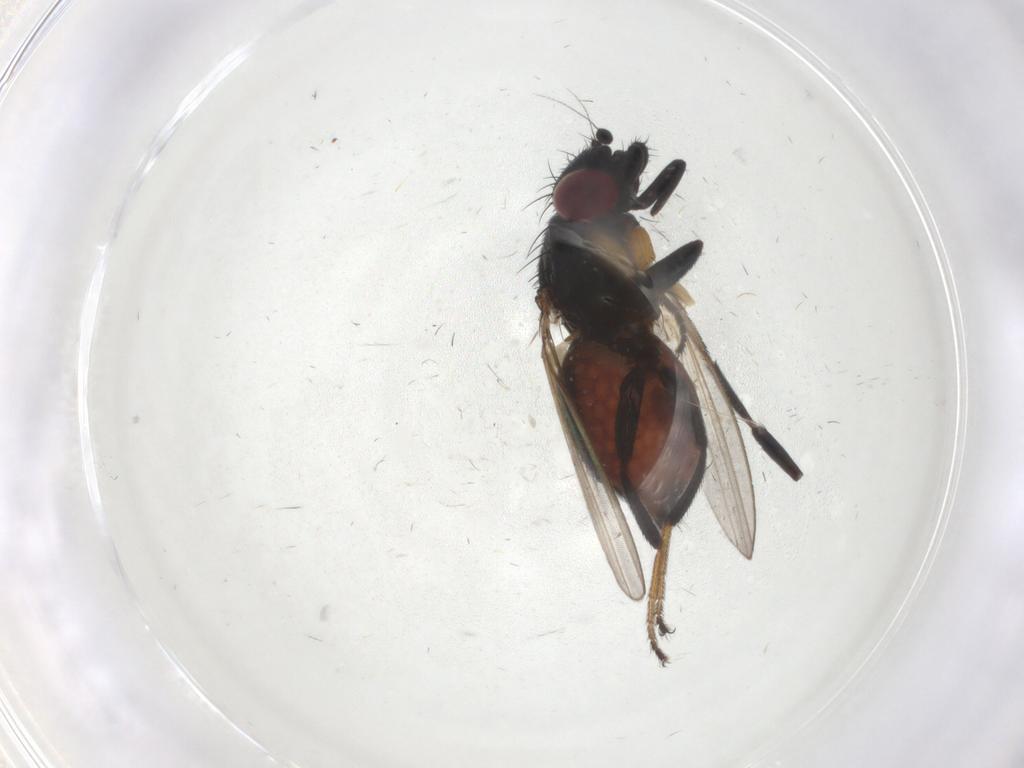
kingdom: Animalia
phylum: Arthropoda
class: Insecta
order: Diptera
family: Milichiidae
